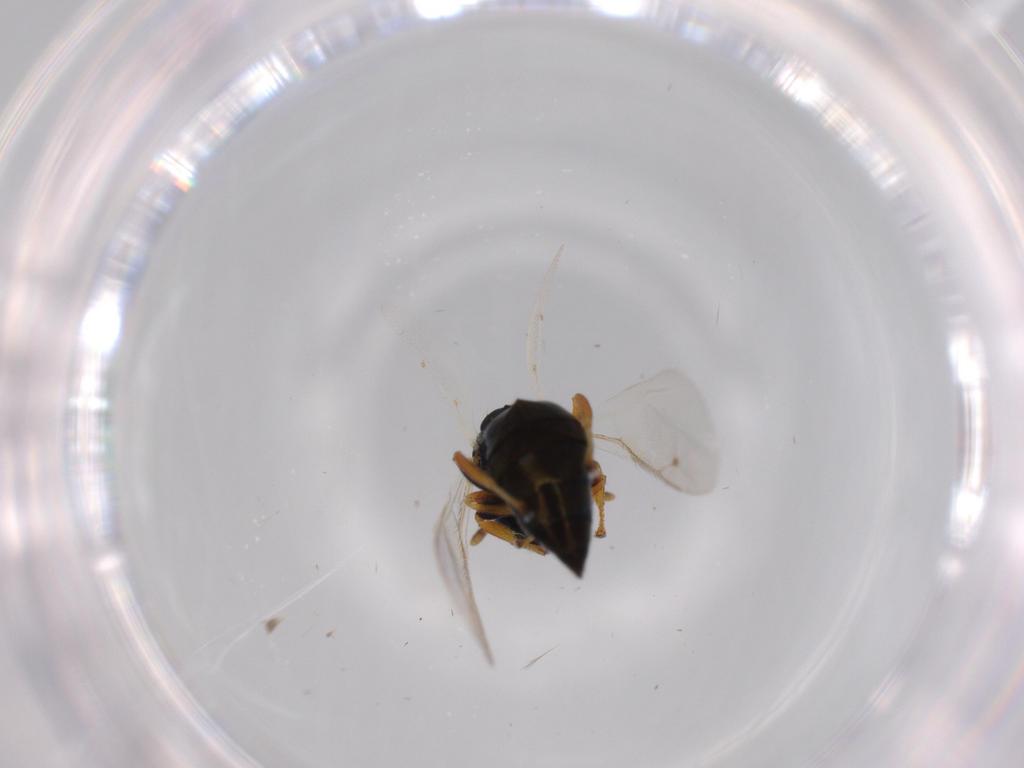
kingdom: Animalia
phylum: Arthropoda
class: Insecta
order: Hymenoptera
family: Pteromalidae
